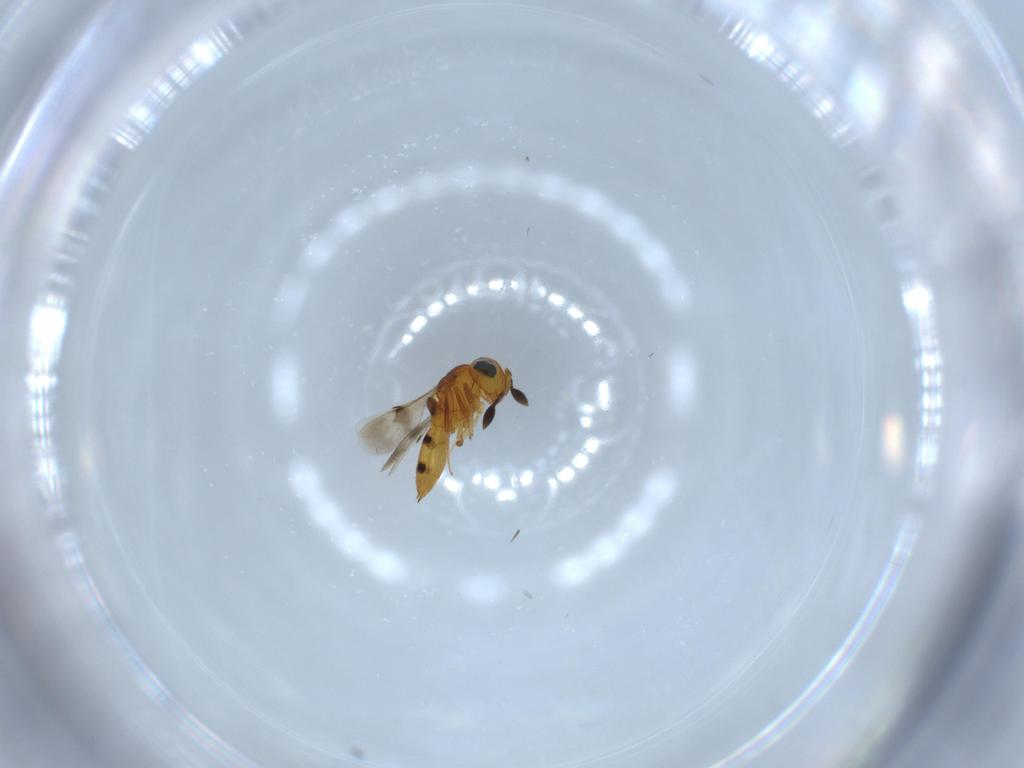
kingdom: Animalia
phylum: Arthropoda
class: Insecta
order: Hymenoptera
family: Scelionidae
